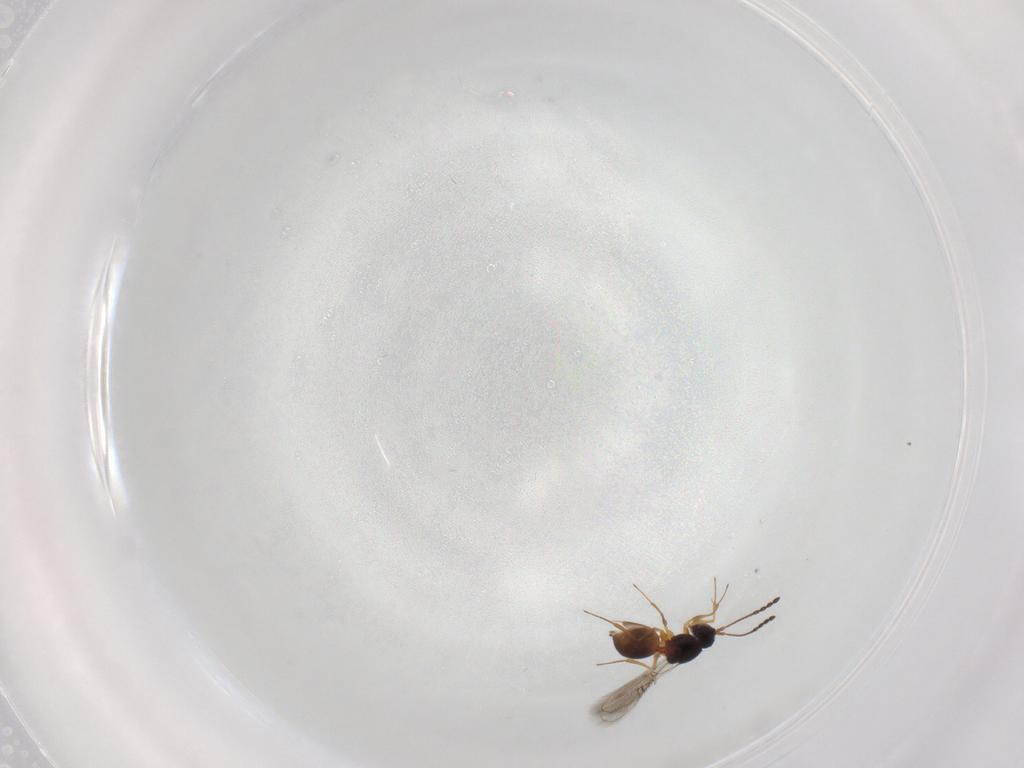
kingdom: Animalia
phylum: Arthropoda
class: Insecta
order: Hymenoptera
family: Figitidae
